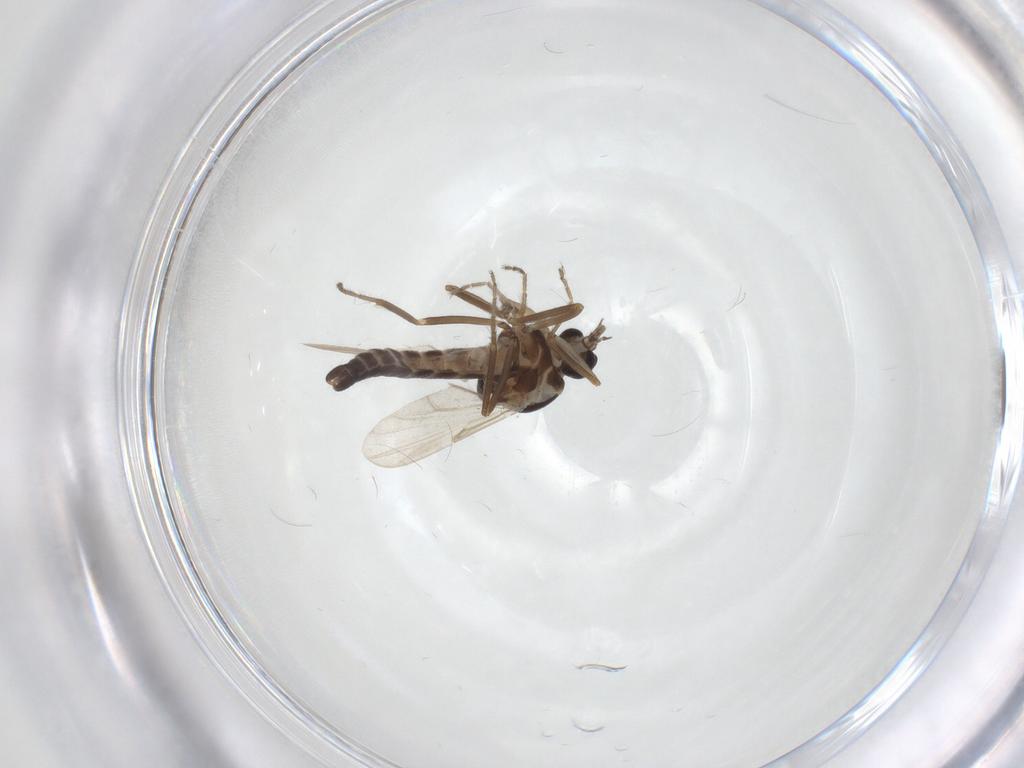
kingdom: Animalia
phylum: Arthropoda
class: Insecta
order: Diptera
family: Ceratopogonidae
